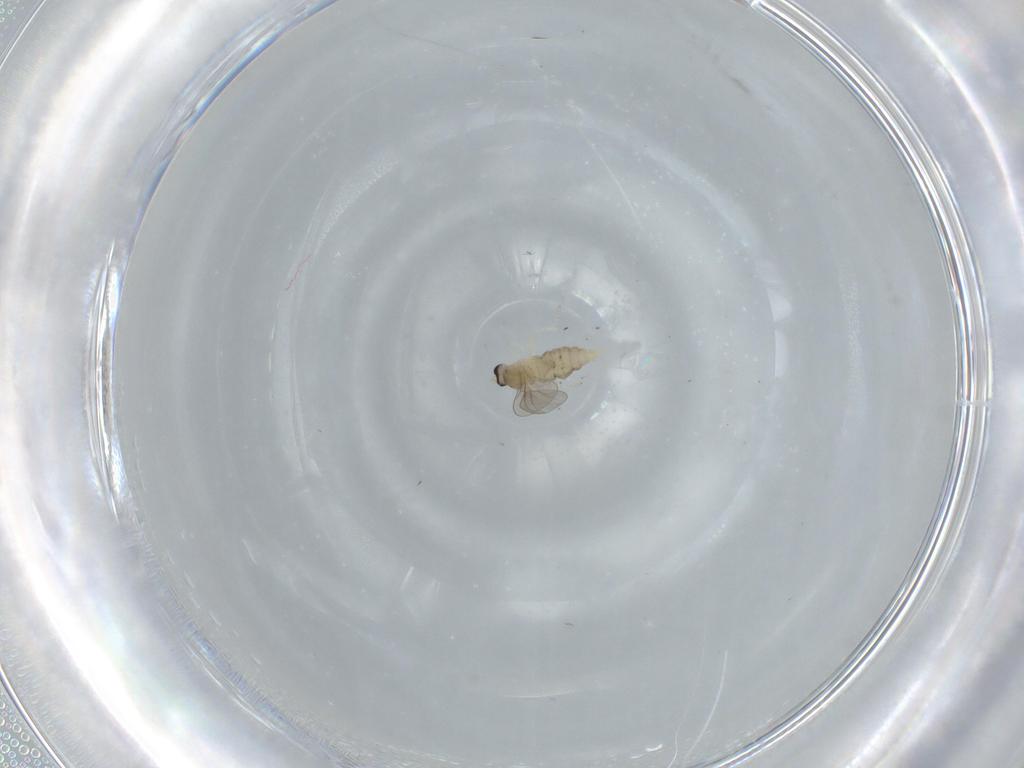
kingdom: Animalia
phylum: Arthropoda
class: Insecta
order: Diptera
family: Cecidomyiidae
